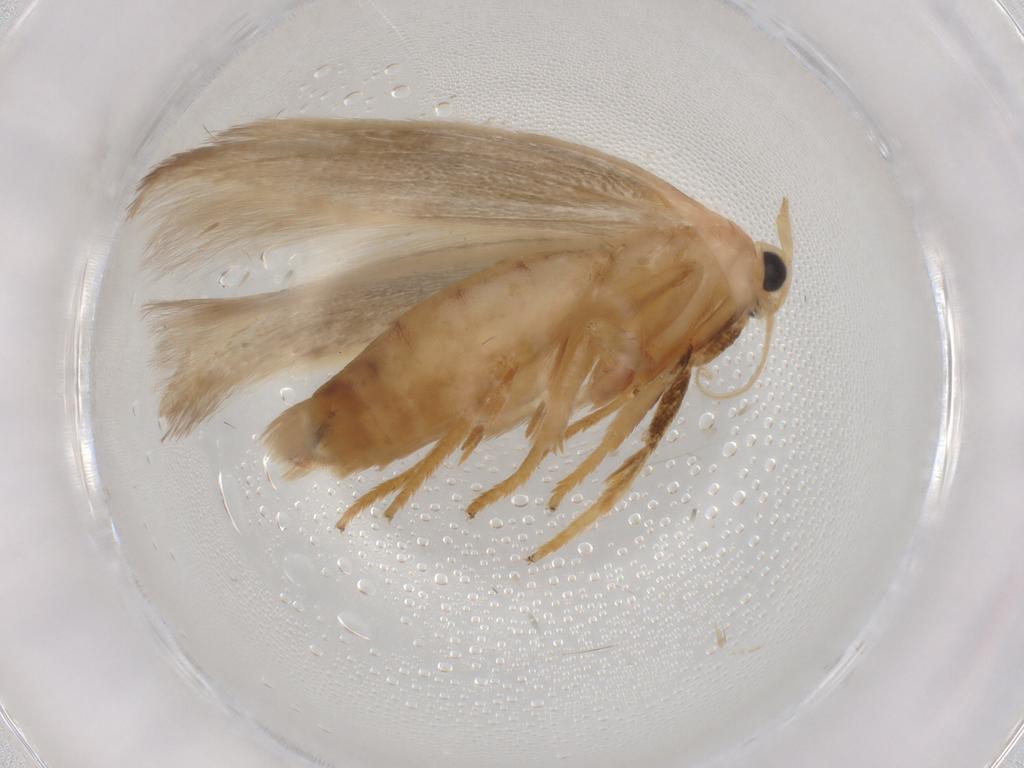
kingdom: Animalia
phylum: Arthropoda
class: Insecta
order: Lepidoptera
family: Geometridae
